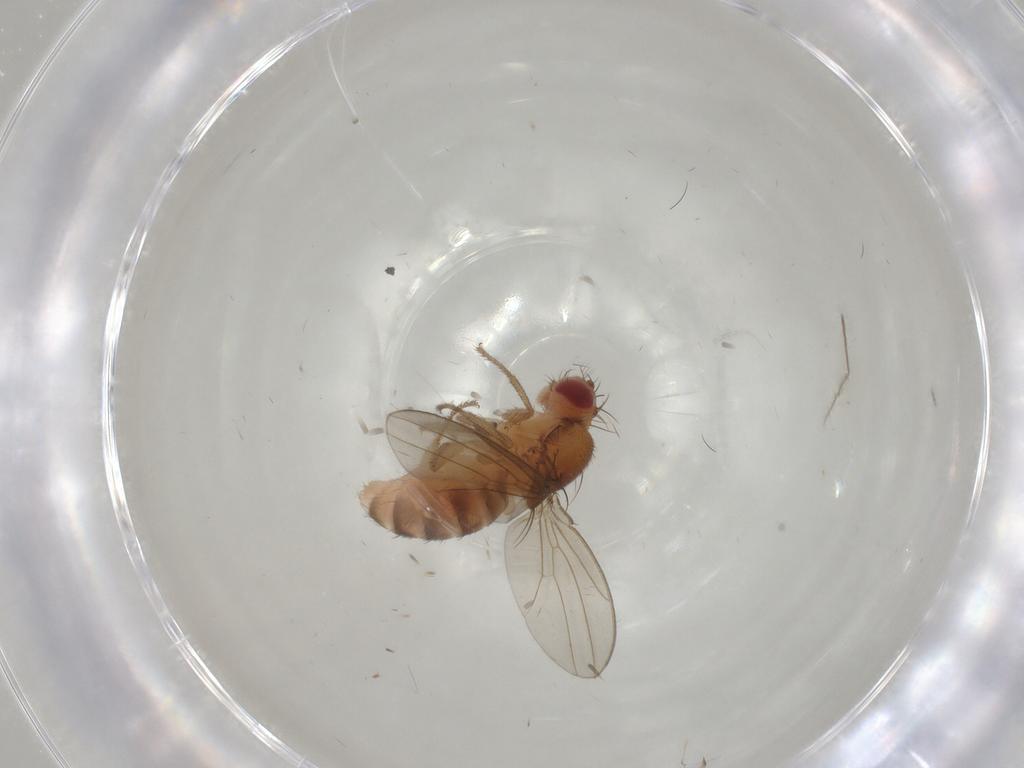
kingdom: Animalia
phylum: Arthropoda
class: Insecta
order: Diptera
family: Drosophilidae
